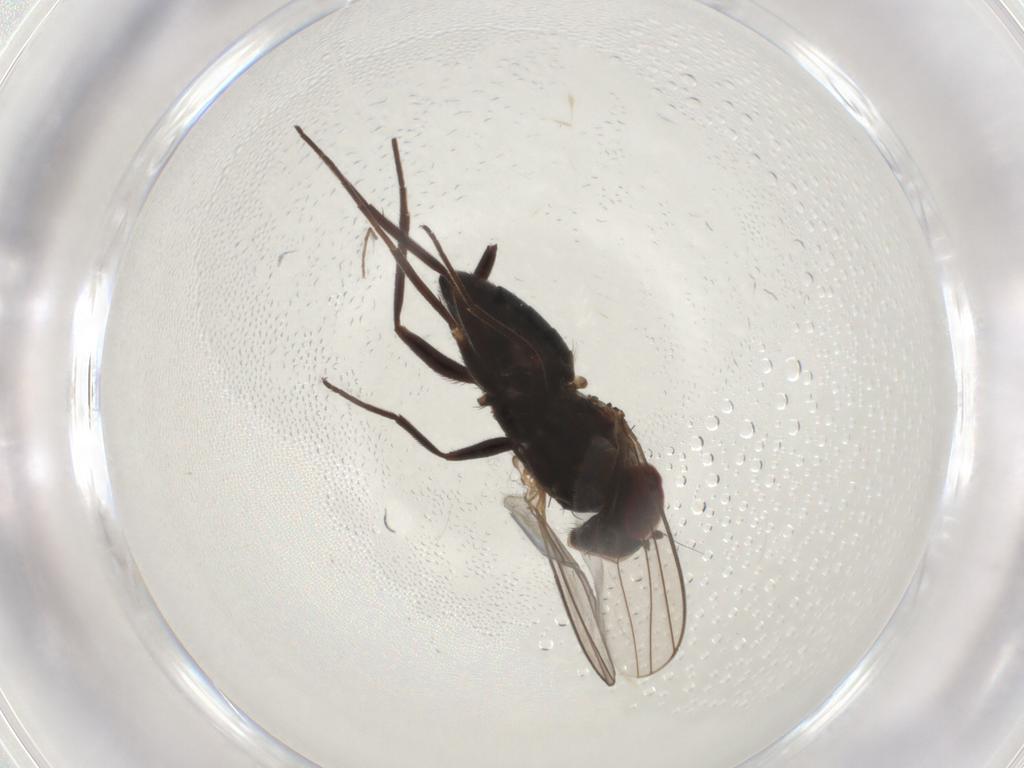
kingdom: Animalia
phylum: Arthropoda
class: Insecta
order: Diptera
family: Dolichopodidae
